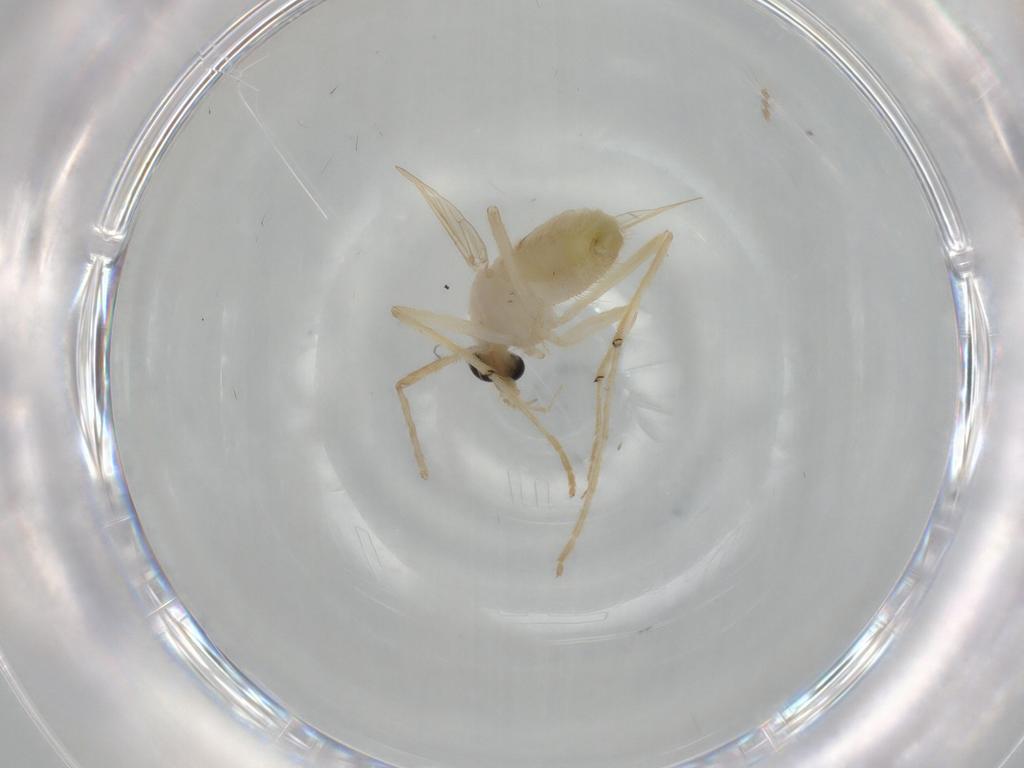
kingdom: Animalia
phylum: Arthropoda
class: Insecta
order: Diptera
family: Chironomidae
